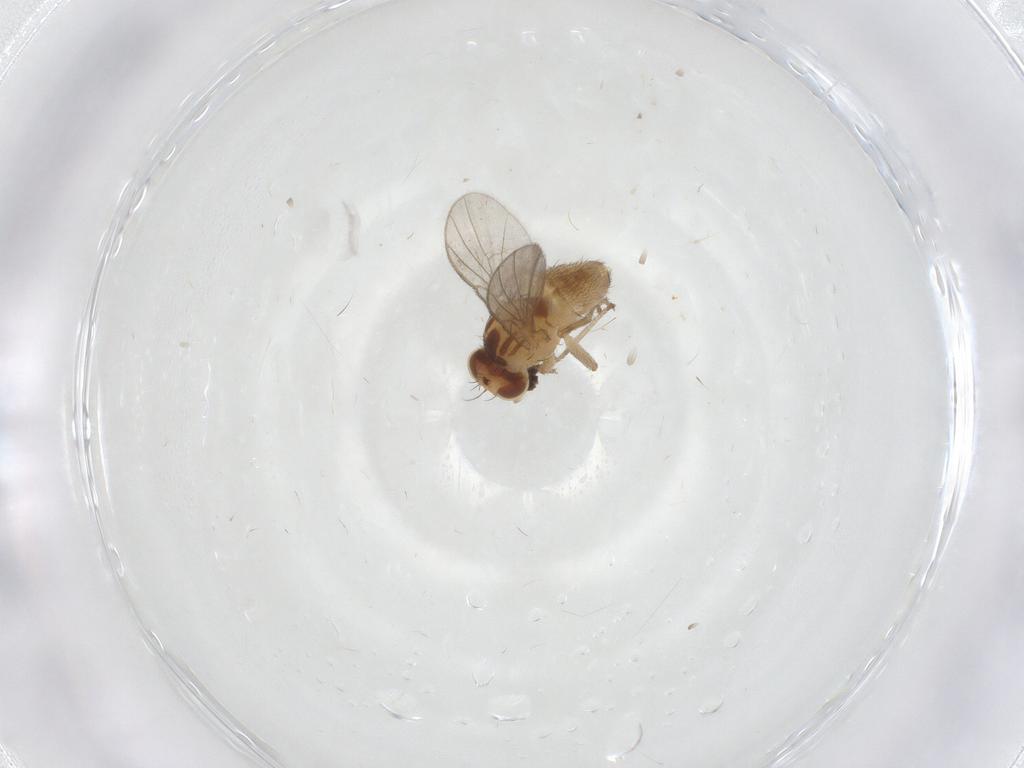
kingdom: Animalia
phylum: Arthropoda
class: Insecta
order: Diptera
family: Agromyzidae
